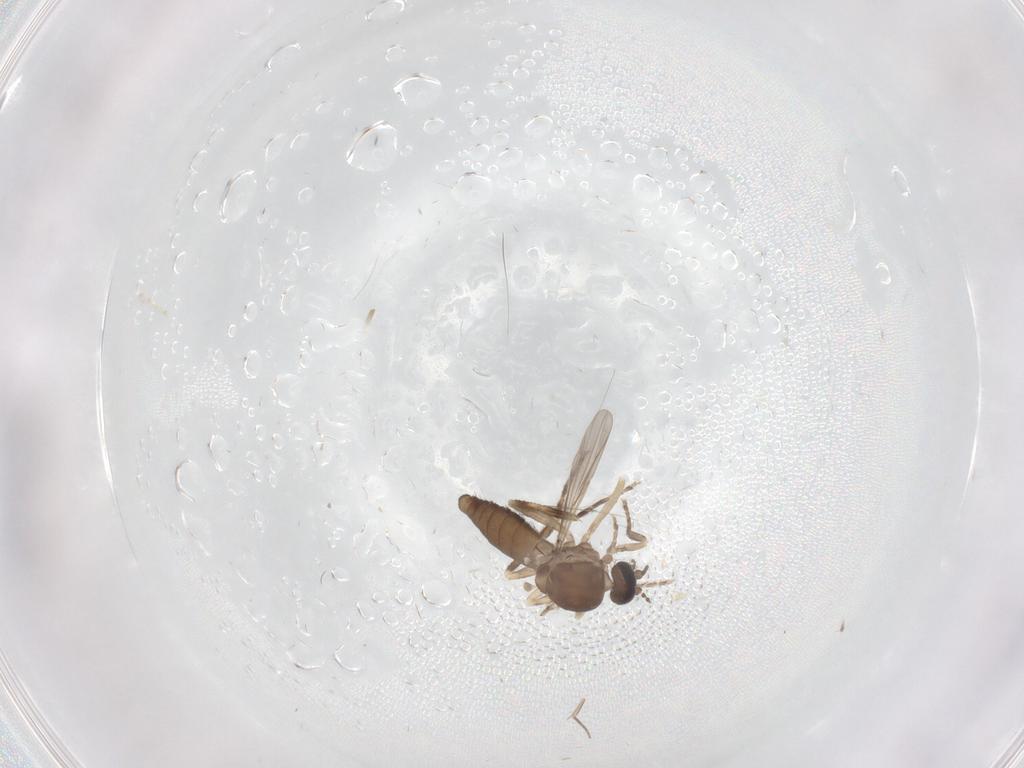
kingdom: Animalia
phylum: Arthropoda
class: Insecta
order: Diptera
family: Ceratopogonidae
